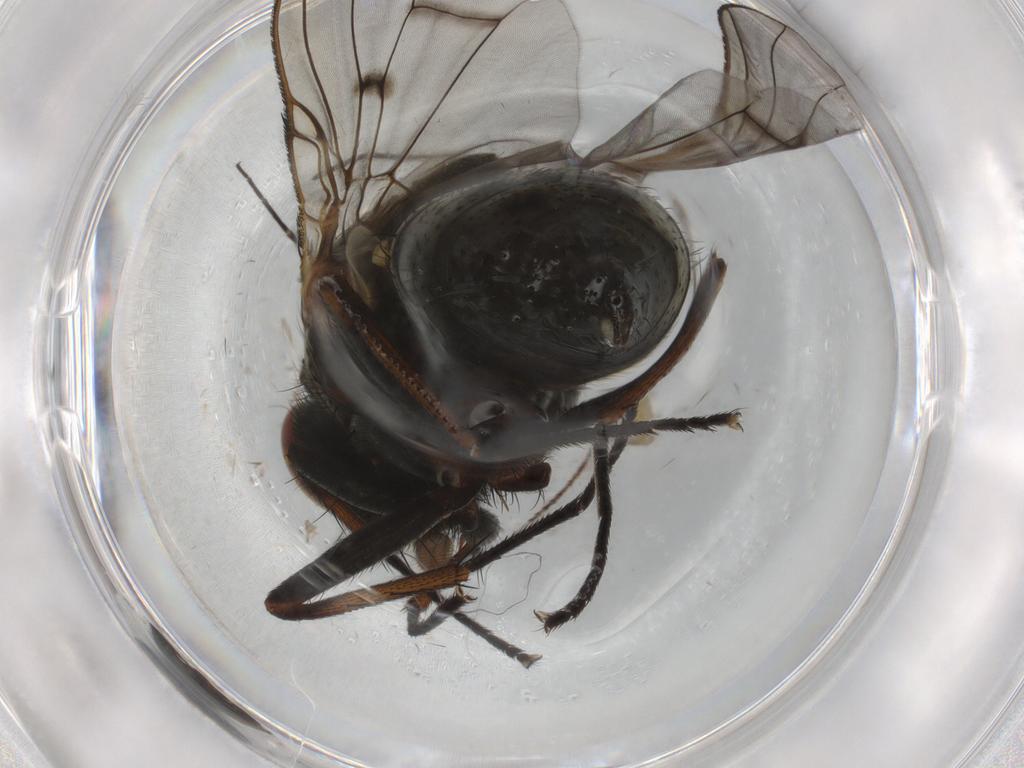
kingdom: Animalia
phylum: Arthropoda
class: Insecta
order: Diptera
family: Muscidae
